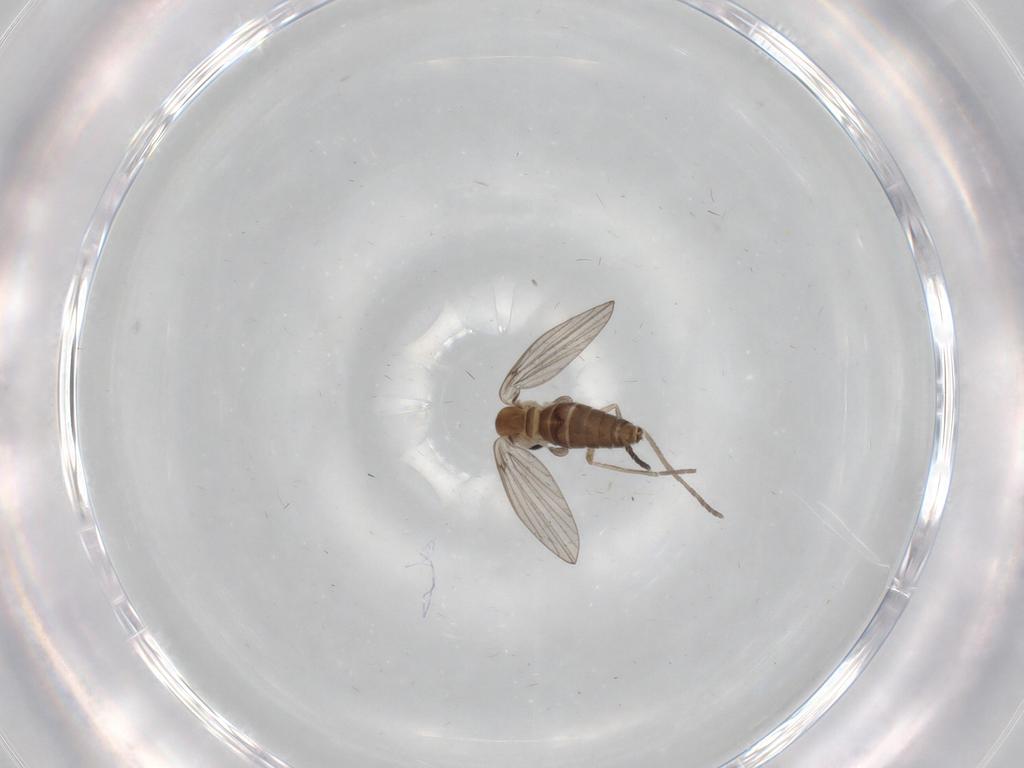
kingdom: Animalia
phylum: Arthropoda
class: Insecta
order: Diptera
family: Psychodidae
